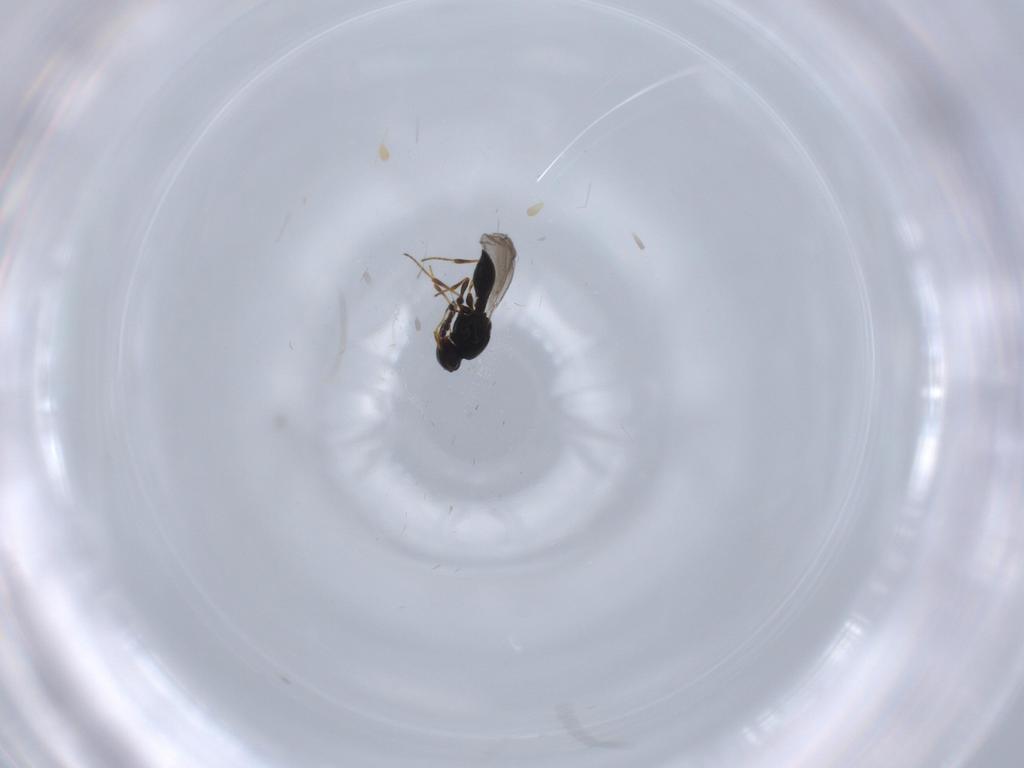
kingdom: Animalia
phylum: Arthropoda
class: Insecta
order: Hymenoptera
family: Platygastridae
